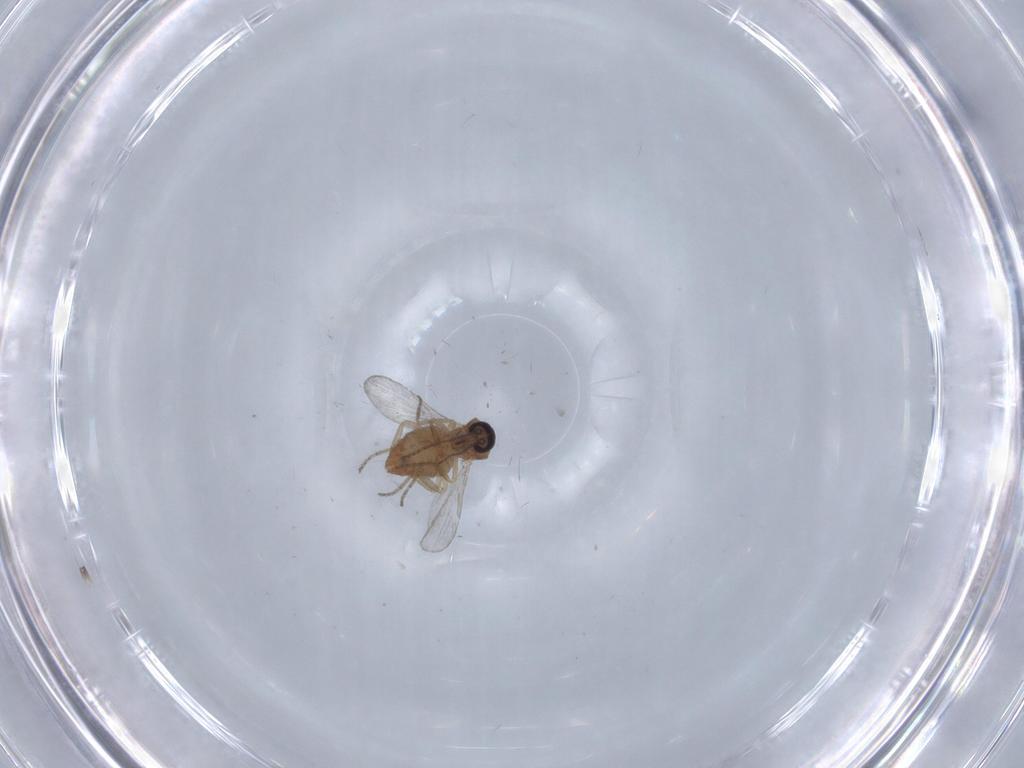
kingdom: Animalia
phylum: Arthropoda
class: Insecta
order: Diptera
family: Ceratopogonidae
